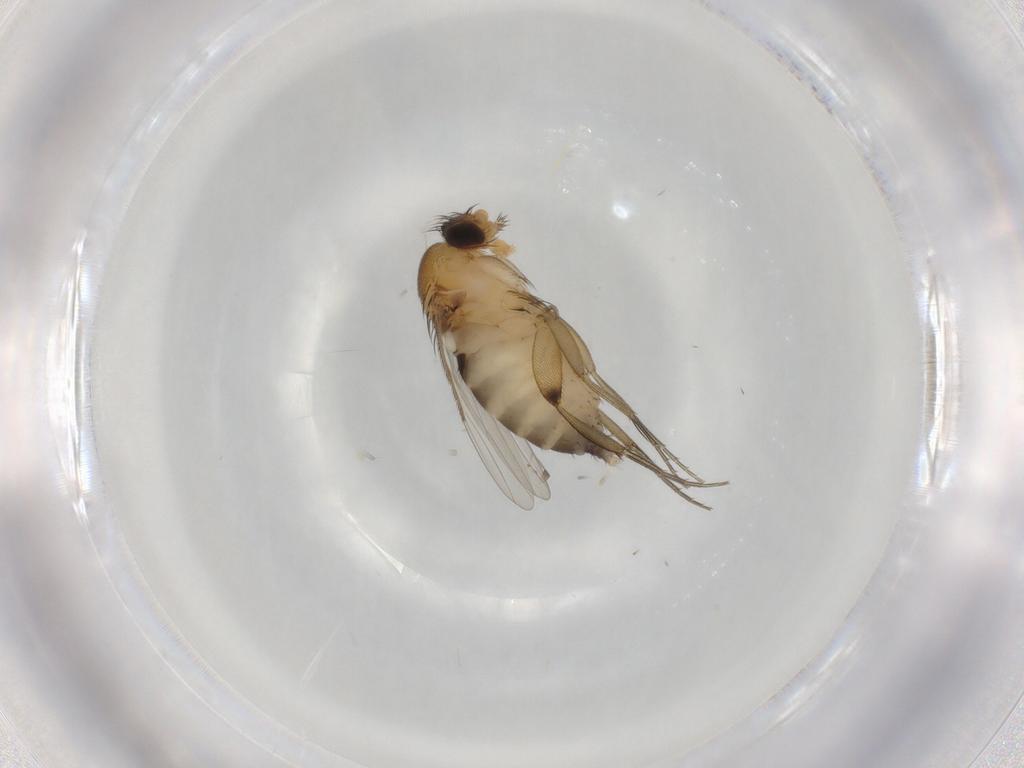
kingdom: Animalia
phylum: Arthropoda
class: Insecta
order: Diptera
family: Phoridae
